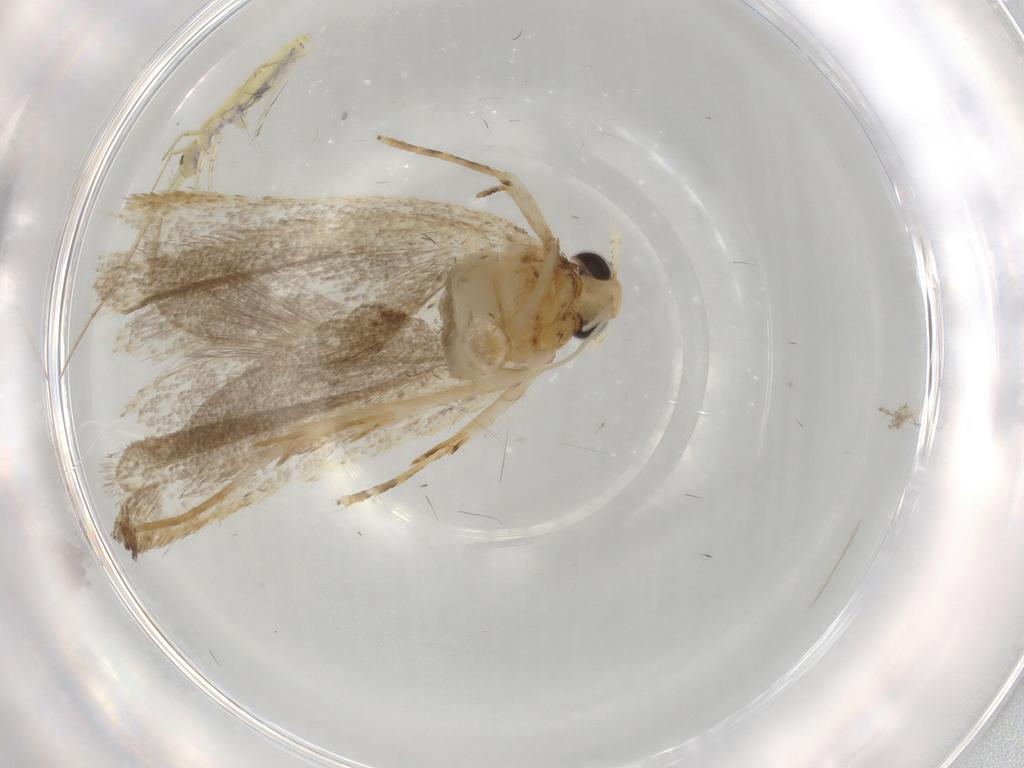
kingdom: Animalia
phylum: Arthropoda
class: Insecta
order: Lepidoptera
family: Lecithoceridae
